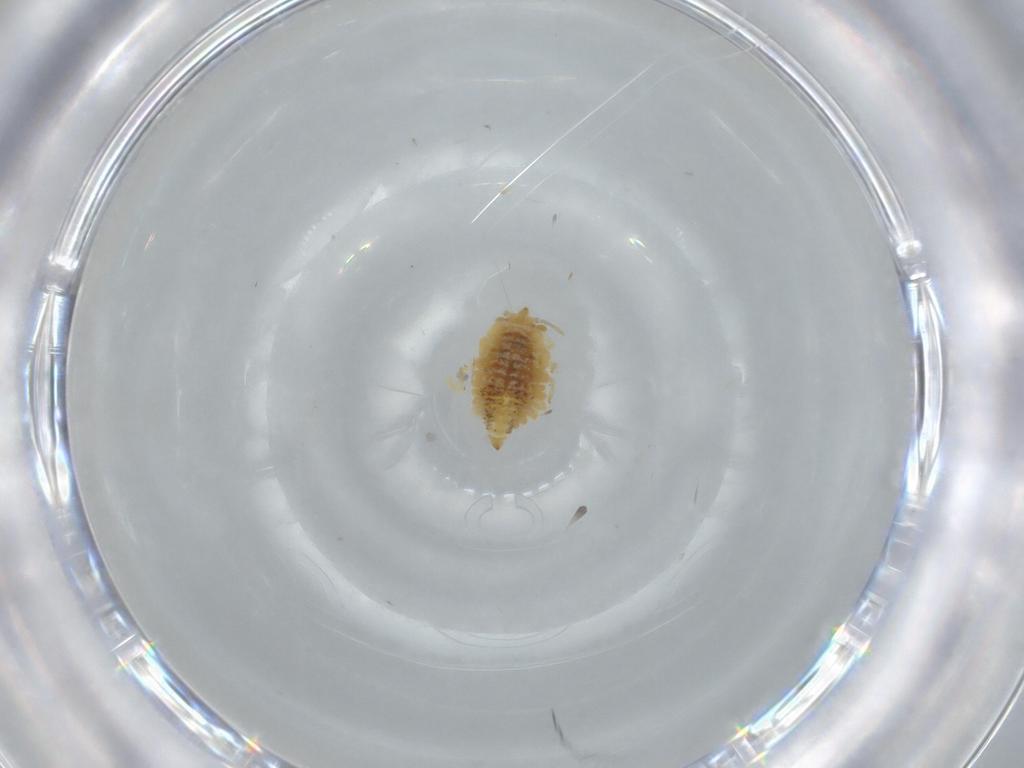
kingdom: Animalia
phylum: Arthropoda
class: Insecta
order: Neuroptera
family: Coniopterygidae
